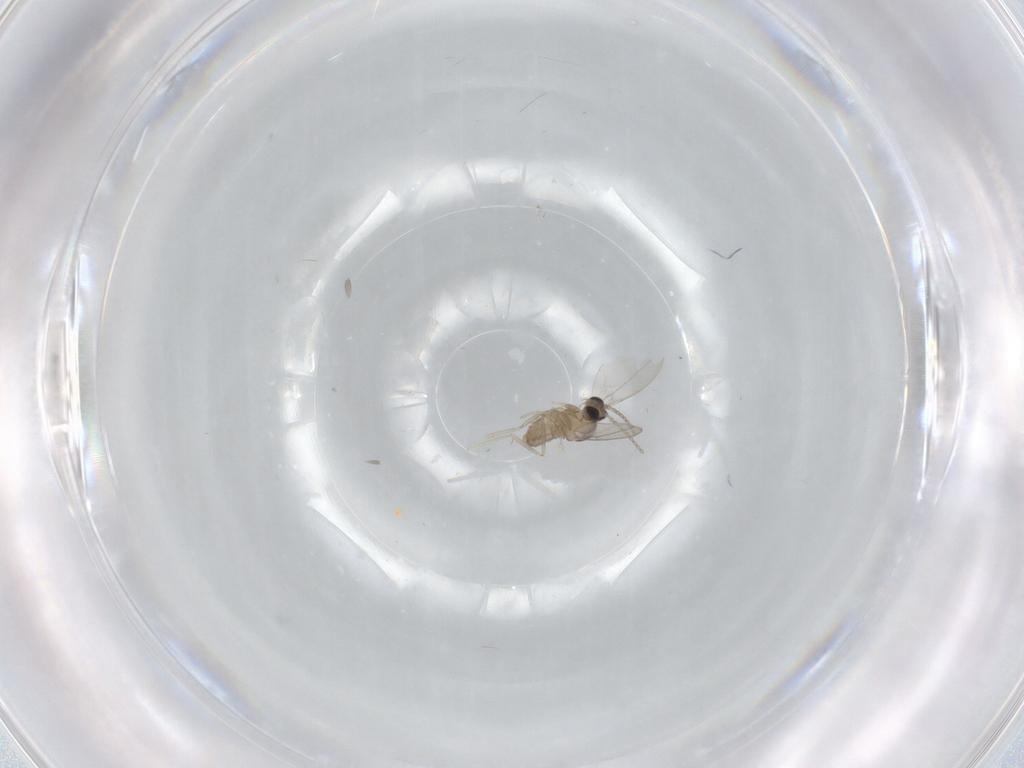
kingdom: Animalia
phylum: Arthropoda
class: Insecta
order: Diptera
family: Cecidomyiidae
